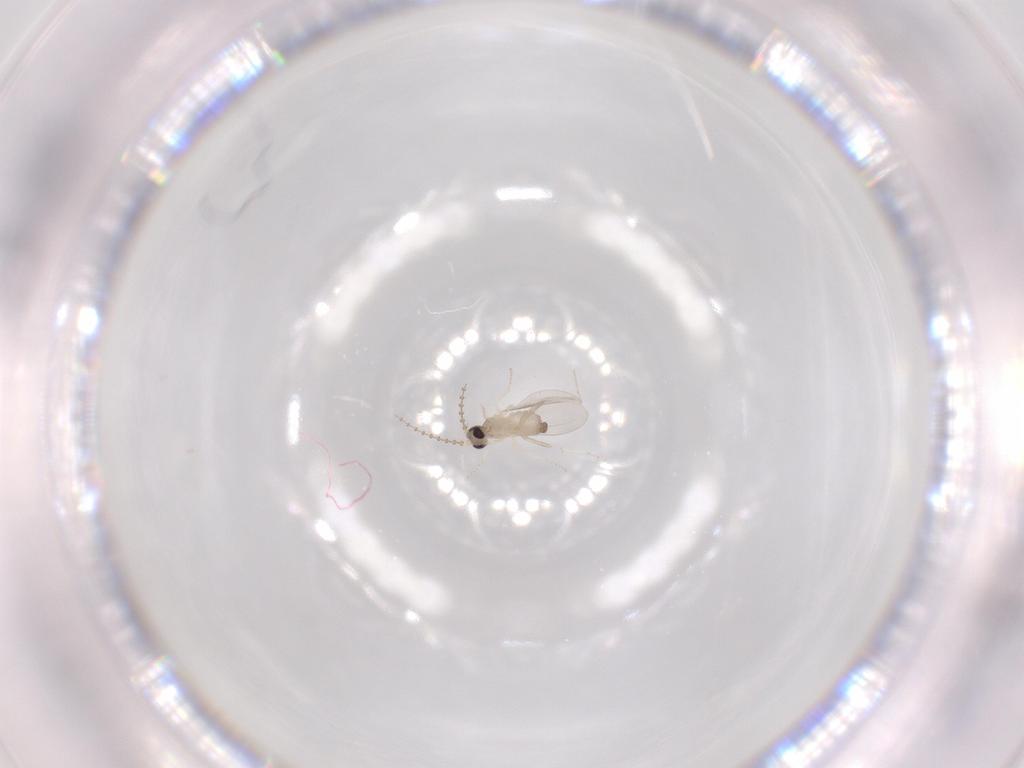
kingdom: Animalia
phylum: Arthropoda
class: Insecta
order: Diptera
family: Cecidomyiidae
